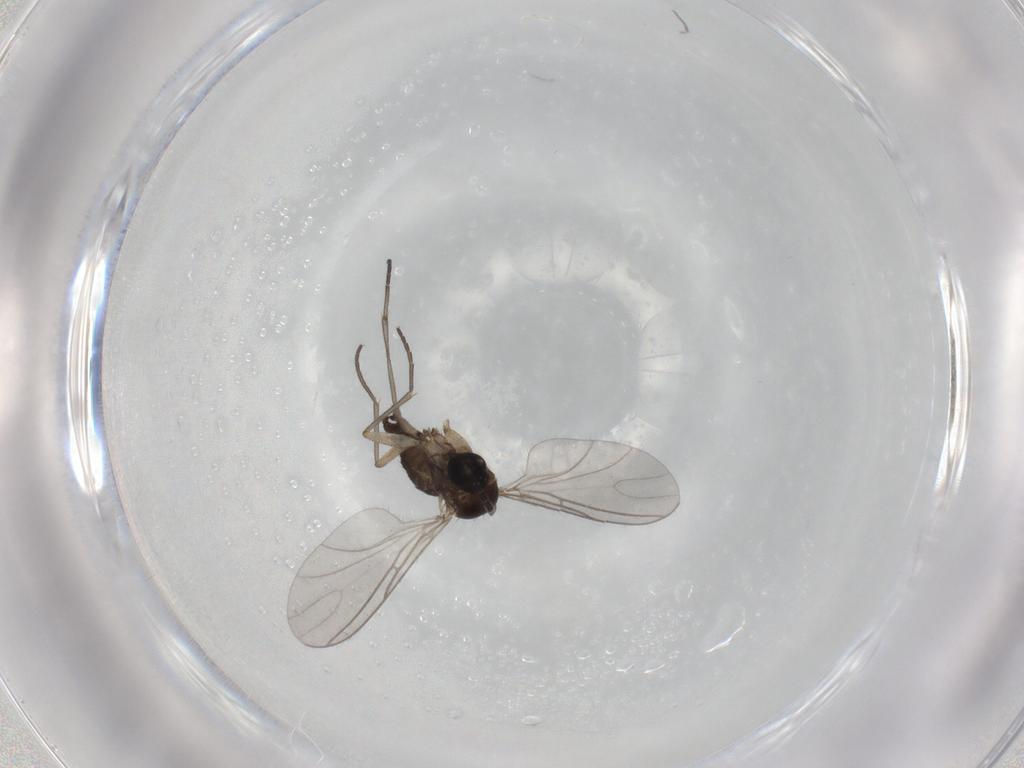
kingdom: Animalia
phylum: Arthropoda
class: Insecta
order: Diptera
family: Sciaridae
